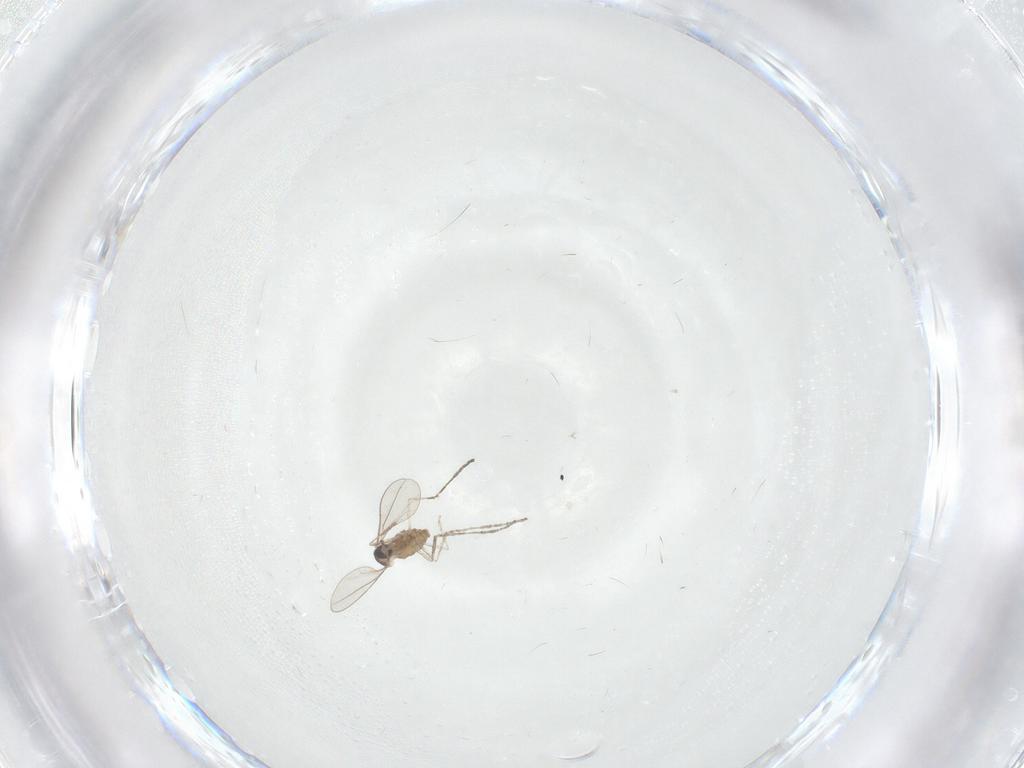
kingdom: Animalia
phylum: Arthropoda
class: Insecta
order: Diptera
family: Cecidomyiidae
